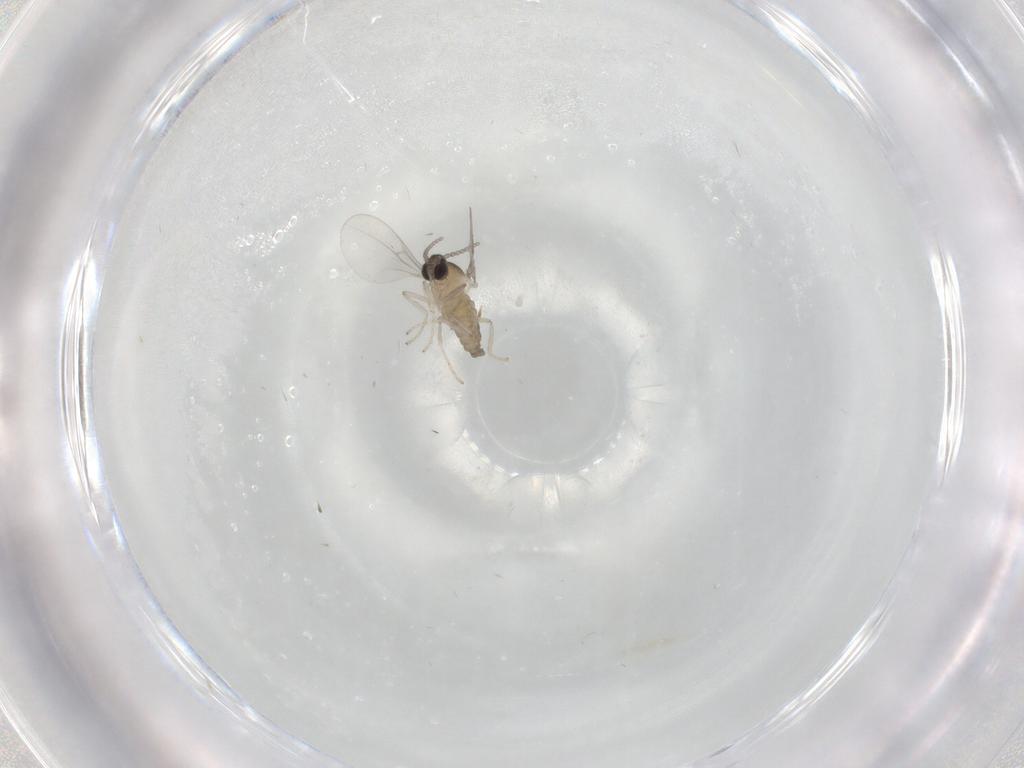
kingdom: Animalia
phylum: Arthropoda
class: Insecta
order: Diptera
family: Cecidomyiidae
